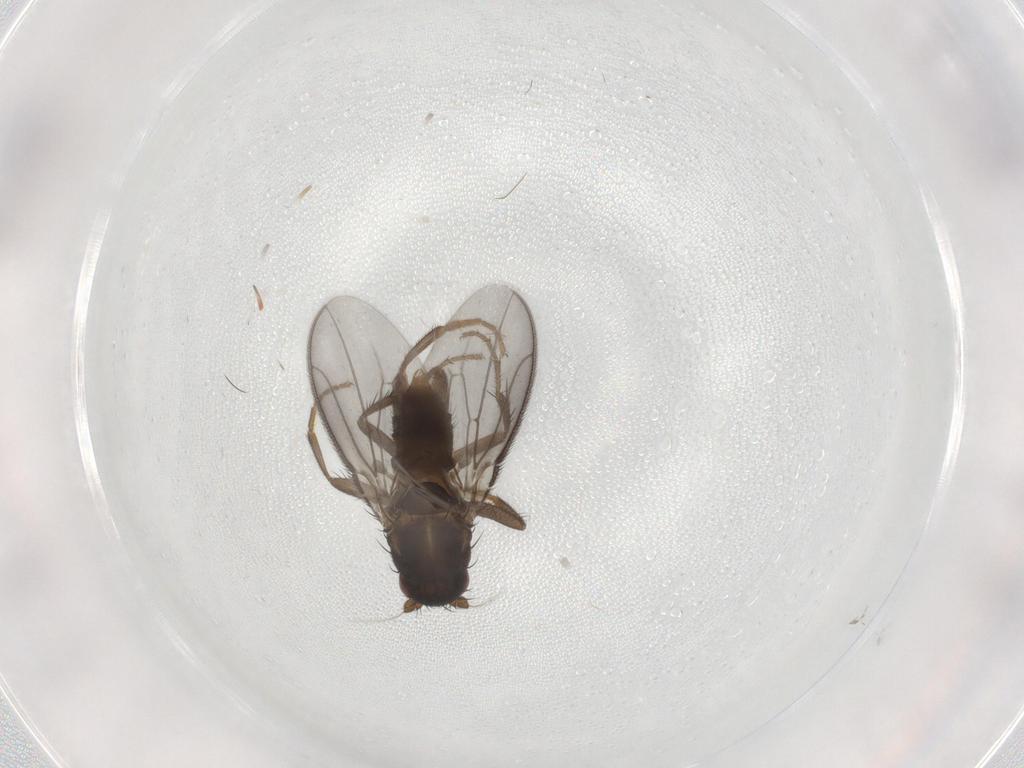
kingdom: Animalia
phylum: Arthropoda
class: Insecta
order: Diptera
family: Sphaeroceridae
